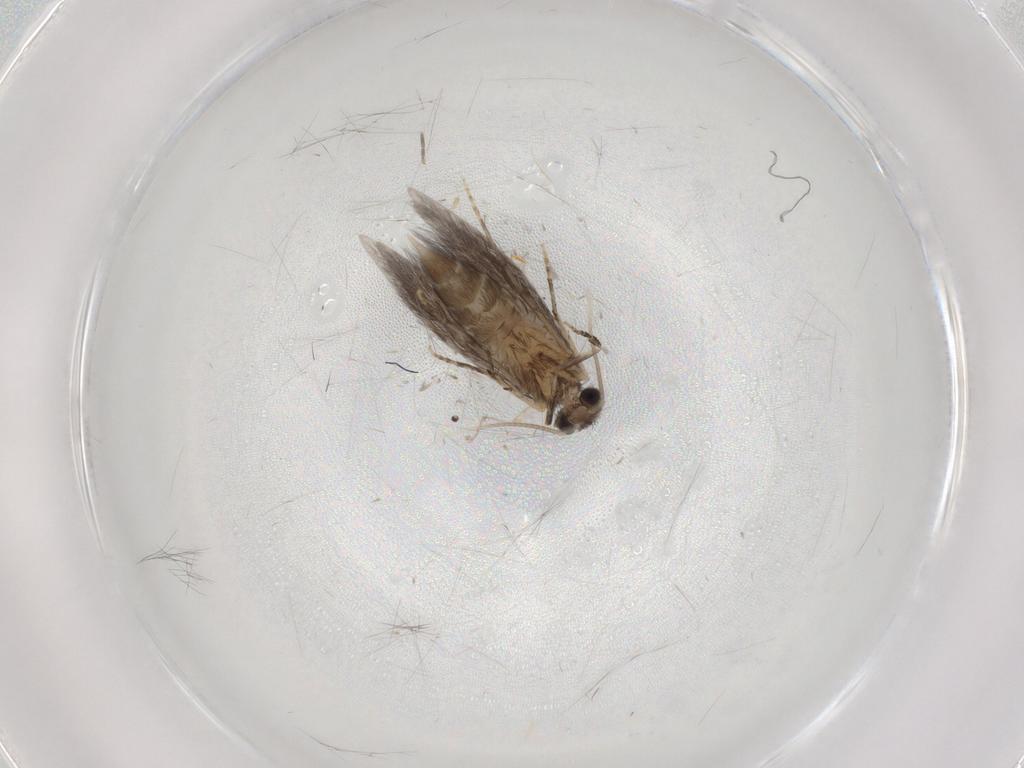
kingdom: Animalia
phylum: Arthropoda
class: Insecta
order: Trichoptera
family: Hydroptilidae
